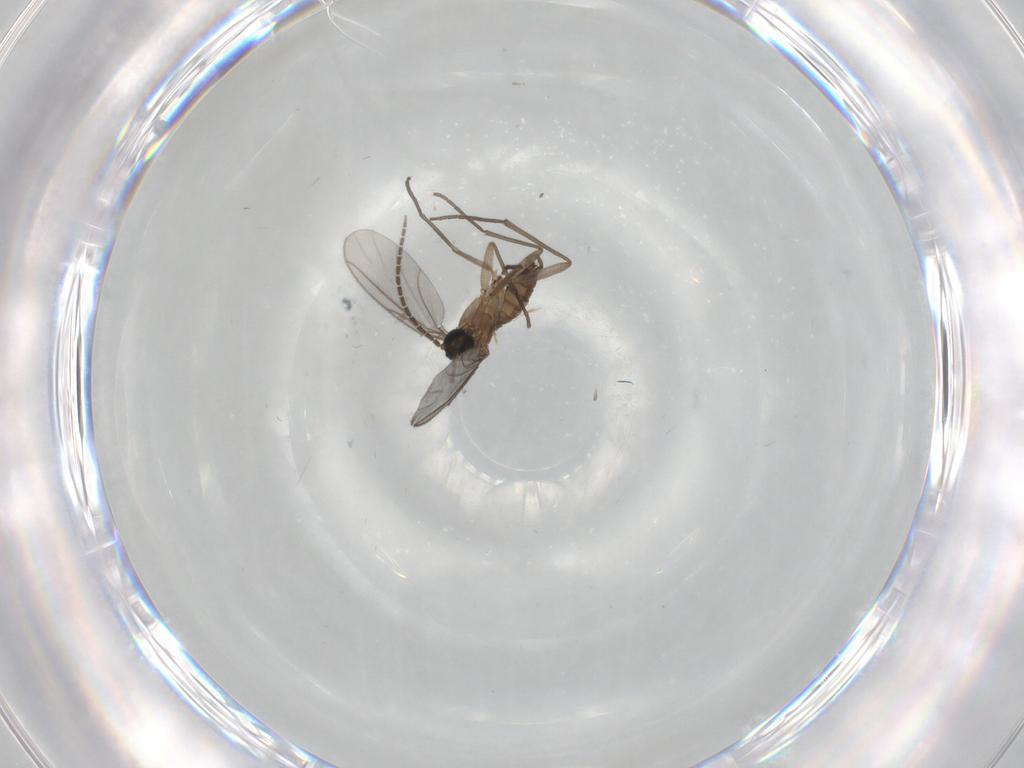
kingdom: Animalia
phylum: Arthropoda
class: Insecta
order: Diptera
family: Sciaridae
